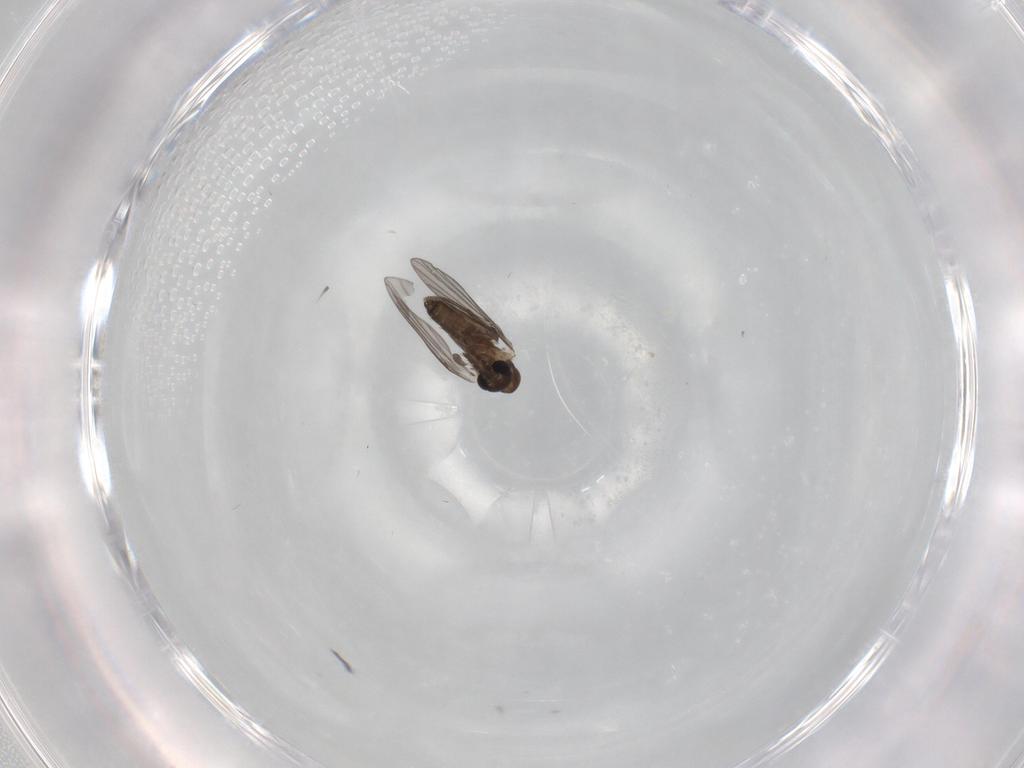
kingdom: Animalia
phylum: Arthropoda
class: Insecta
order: Diptera
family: Psychodidae
